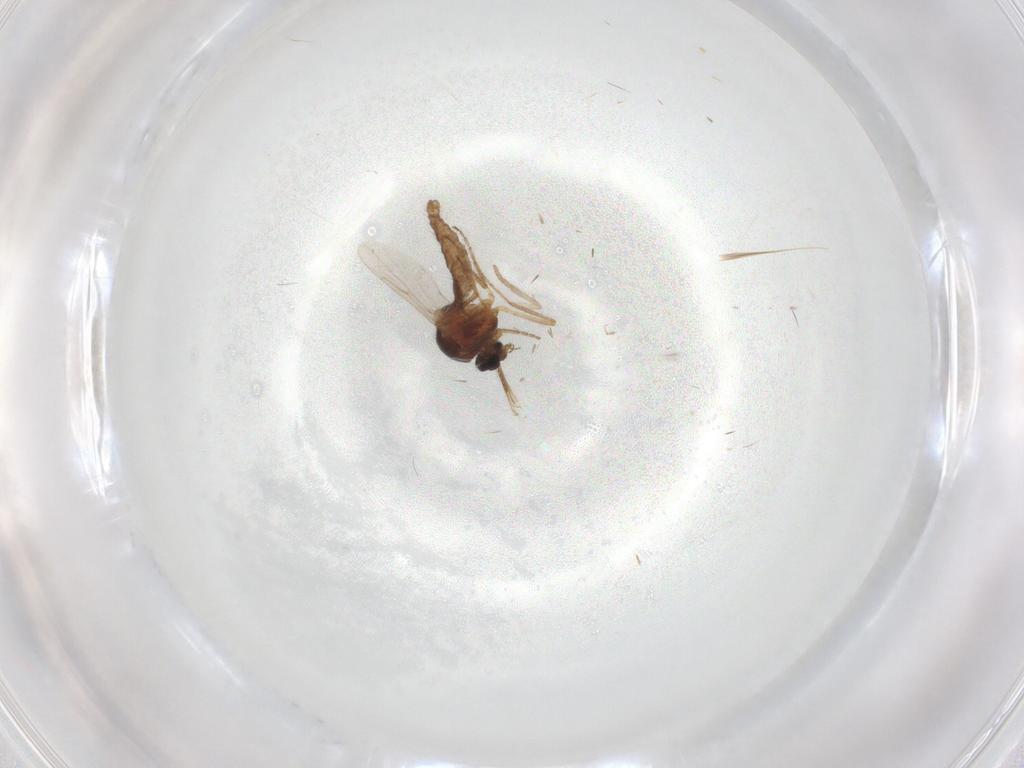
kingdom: Animalia
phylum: Arthropoda
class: Insecta
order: Diptera
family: Ceratopogonidae
